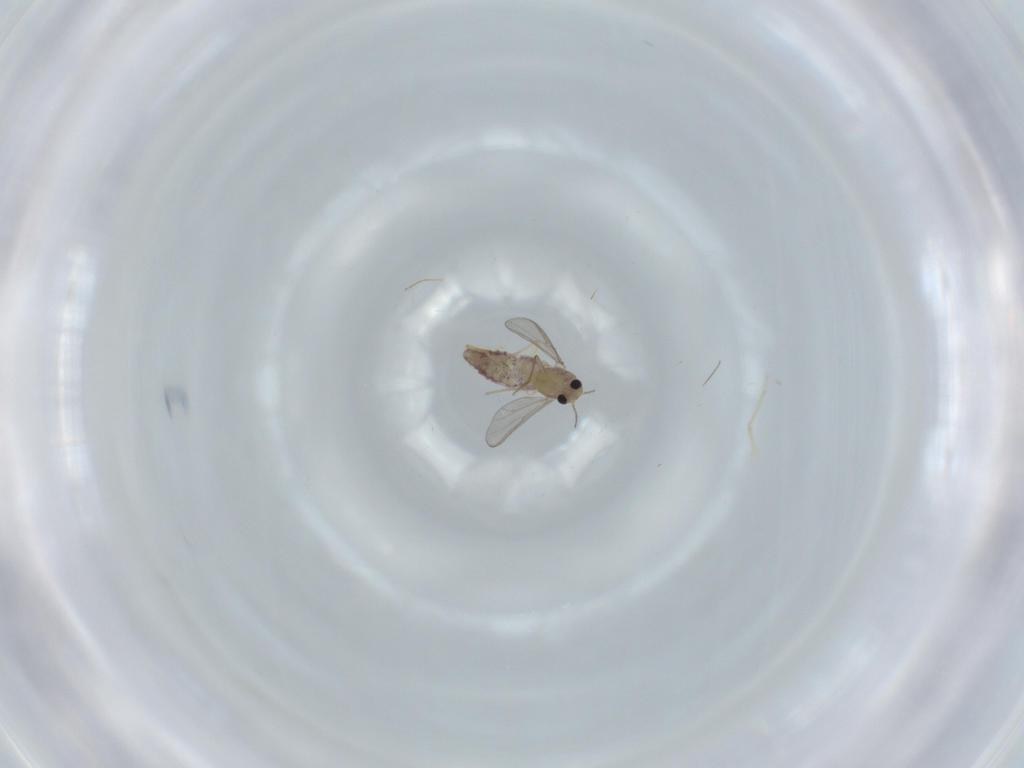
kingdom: Animalia
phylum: Arthropoda
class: Insecta
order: Diptera
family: Chironomidae
